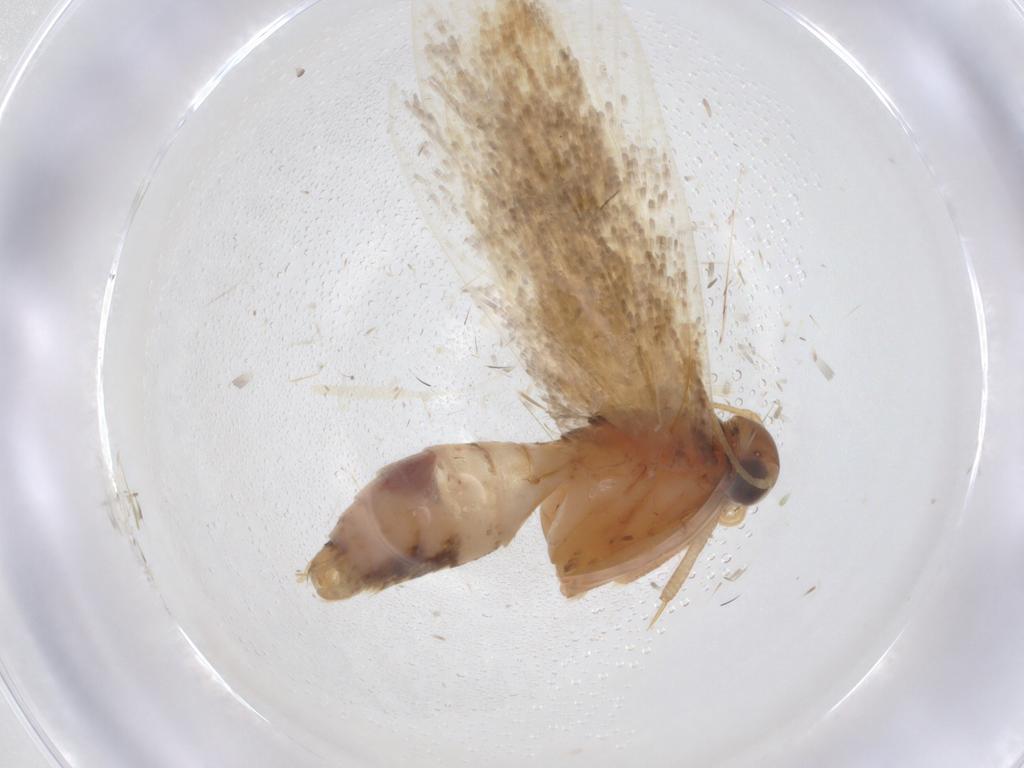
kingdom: Animalia
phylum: Arthropoda
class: Insecta
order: Lepidoptera
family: Gelechiidae
